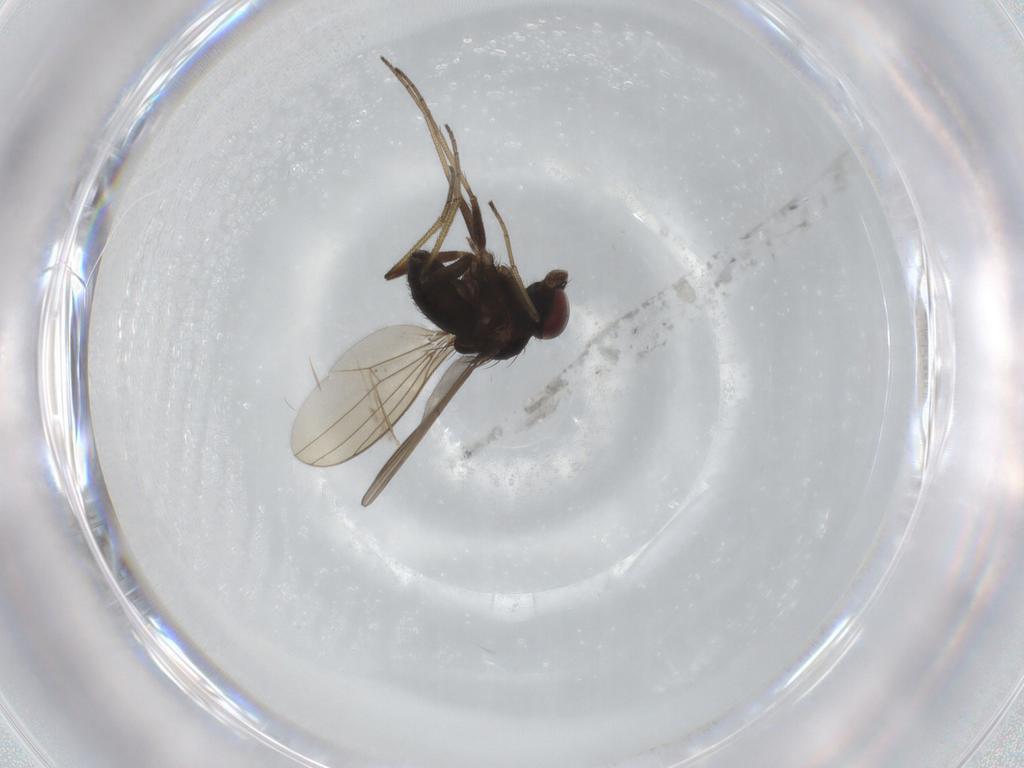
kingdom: Animalia
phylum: Arthropoda
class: Insecta
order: Diptera
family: Dolichopodidae
